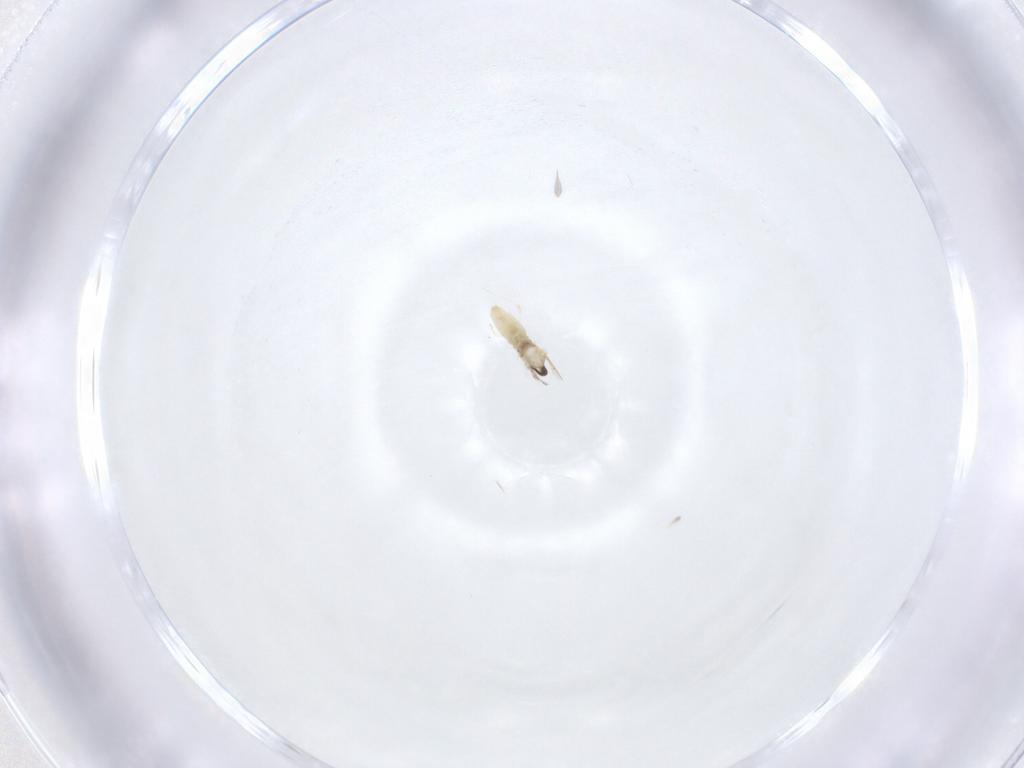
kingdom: Animalia
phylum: Arthropoda
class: Insecta
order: Diptera
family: Cecidomyiidae
